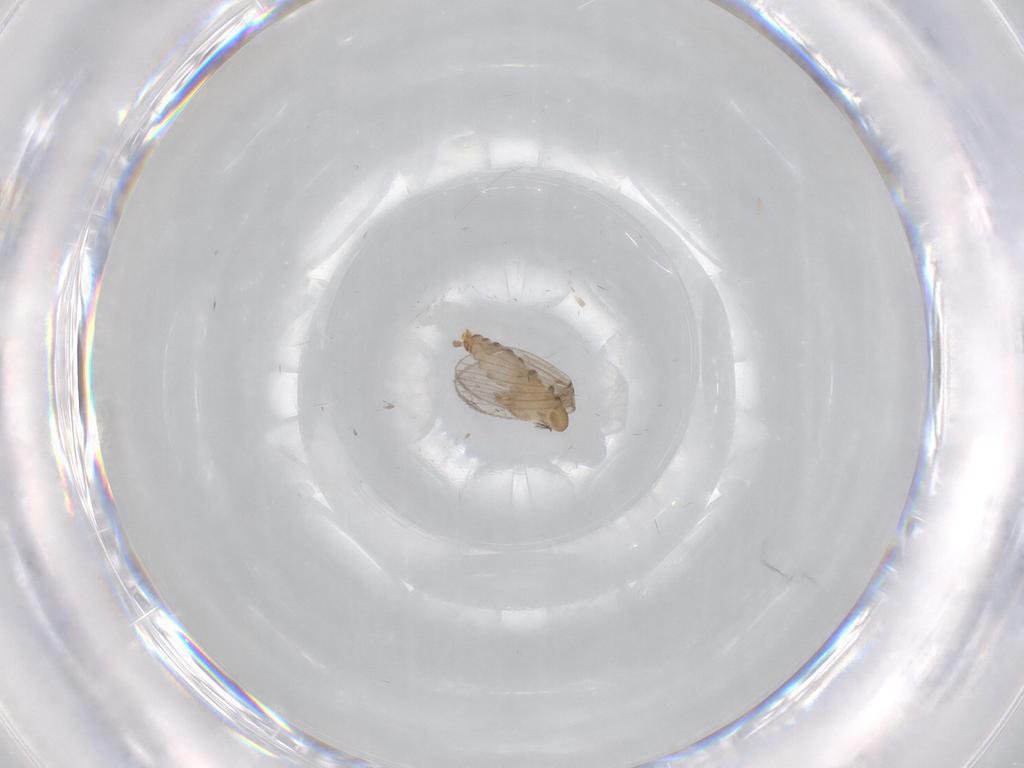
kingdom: Animalia
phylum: Arthropoda
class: Insecta
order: Diptera
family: Psychodidae
